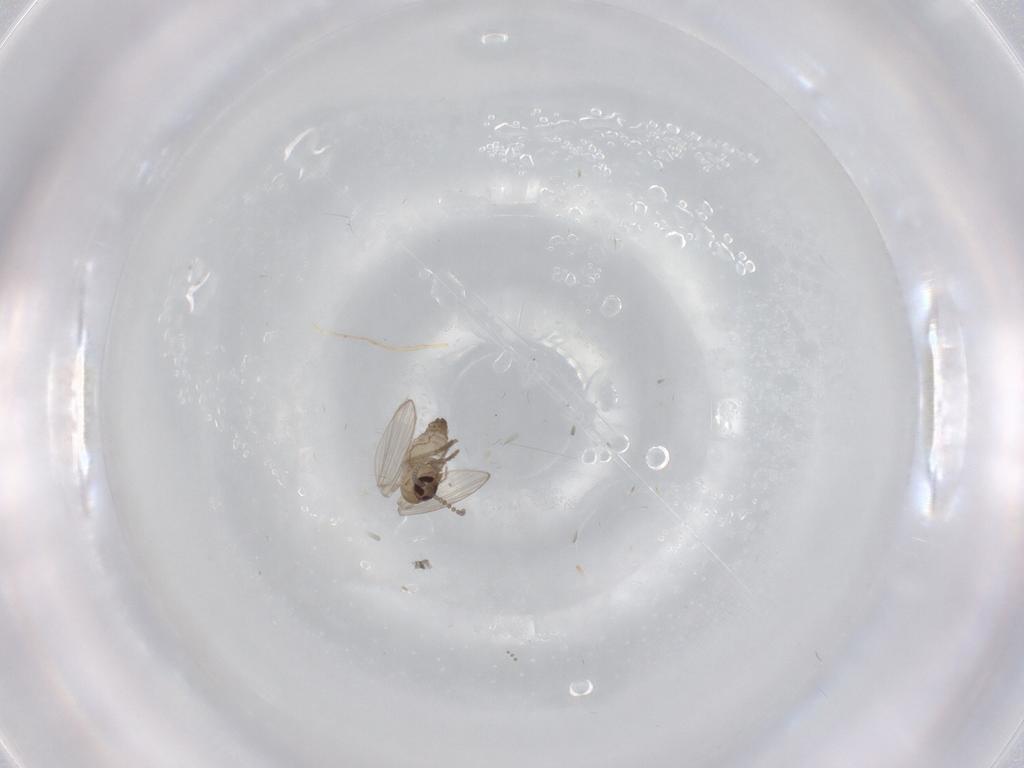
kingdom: Animalia
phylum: Arthropoda
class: Insecta
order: Diptera
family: Sciaridae
